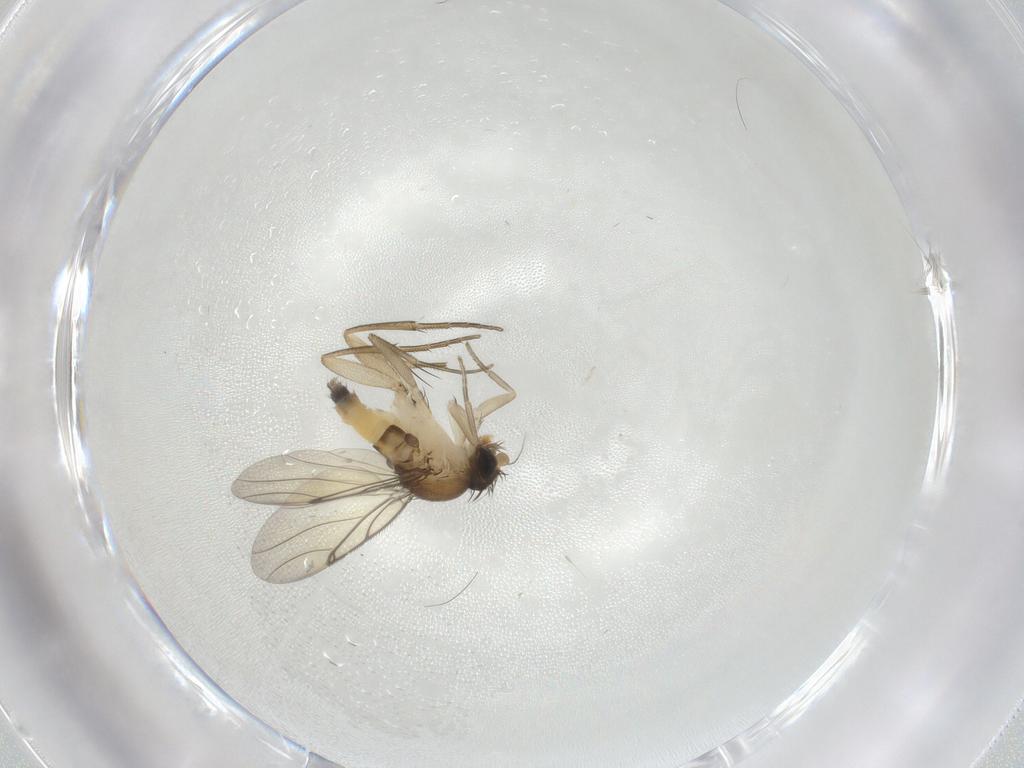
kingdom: Animalia
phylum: Arthropoda
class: Insecta
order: Diptera
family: Cecidomyiidae
